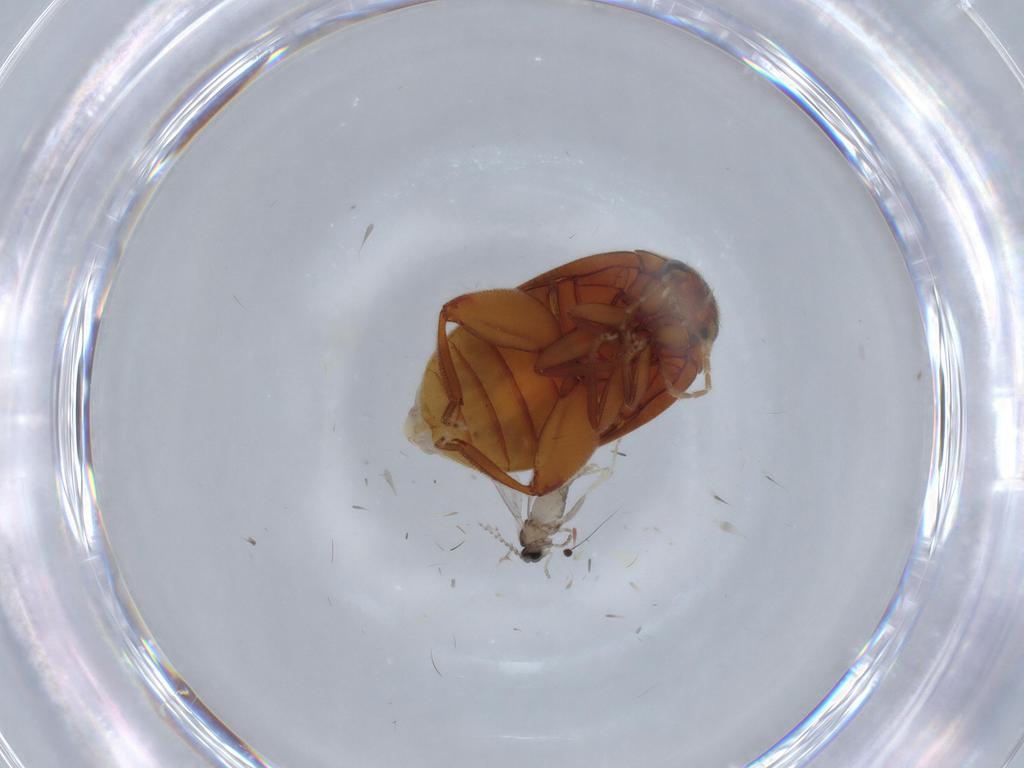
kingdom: Animalia
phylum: Arthropoda
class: Insecta
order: Diptera
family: Cecidomyiidae
